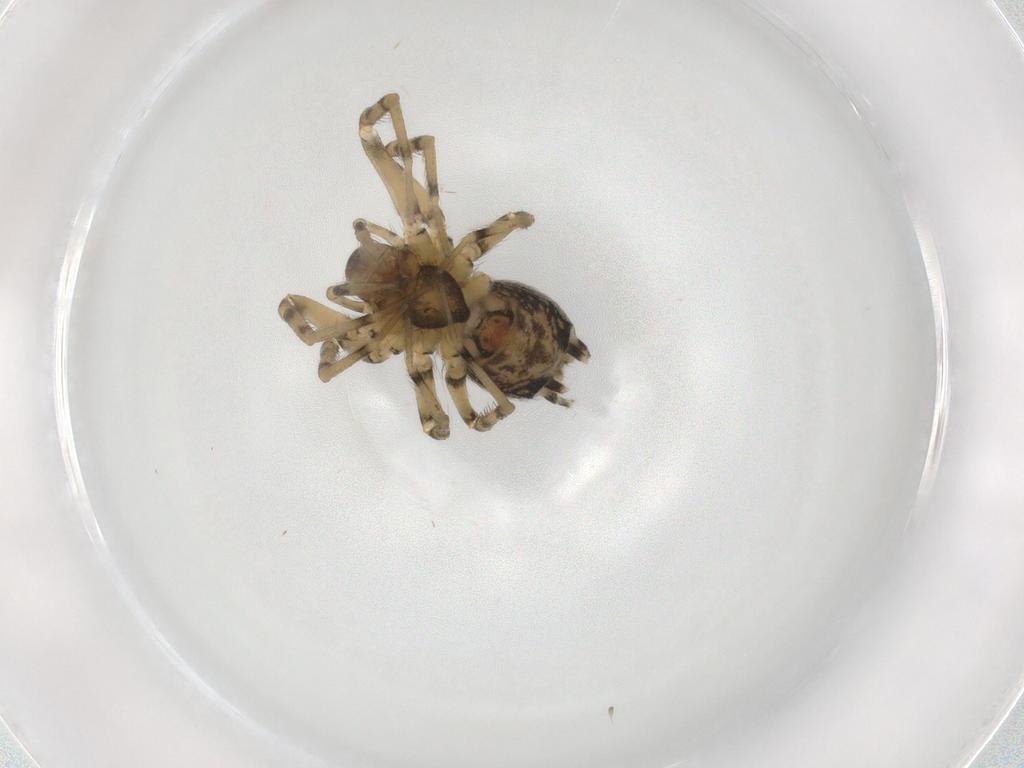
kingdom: Animalia
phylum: Arthropoda
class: Arachnida
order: Araneae
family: Hahniidae
